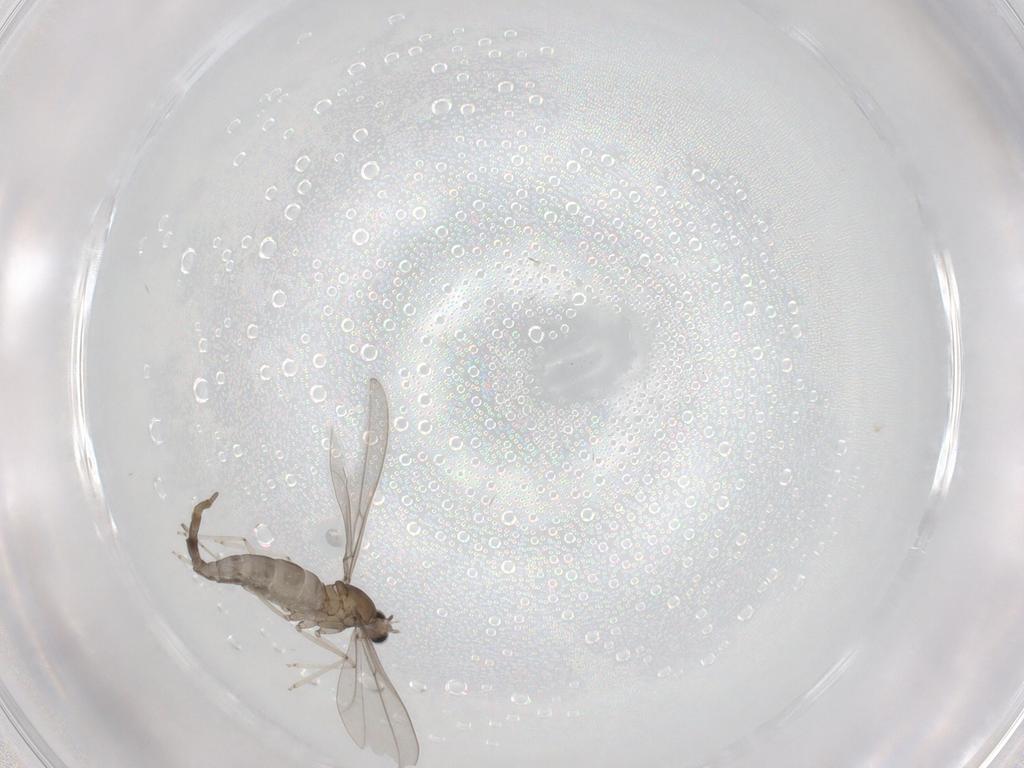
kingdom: Animalia
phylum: Arthropoda
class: Insecta
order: Diptera
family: Cecidomyiidae
